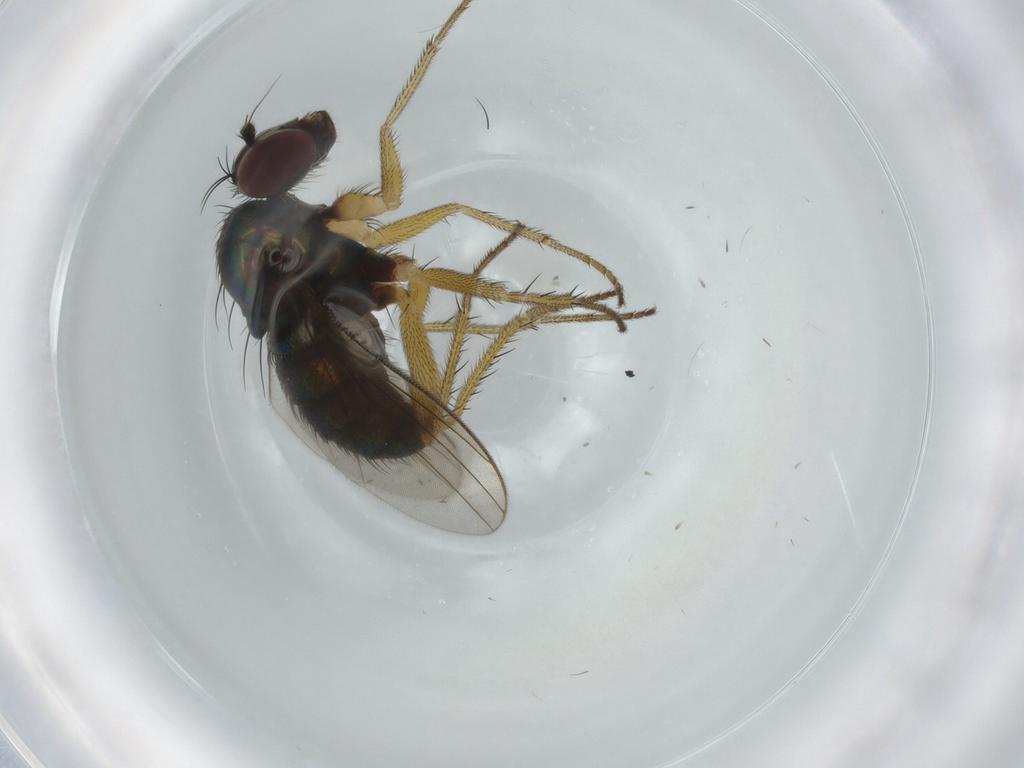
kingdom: Animalia
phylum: Arthropoda
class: Insecta
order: Diptera
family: Dolichopodidae
